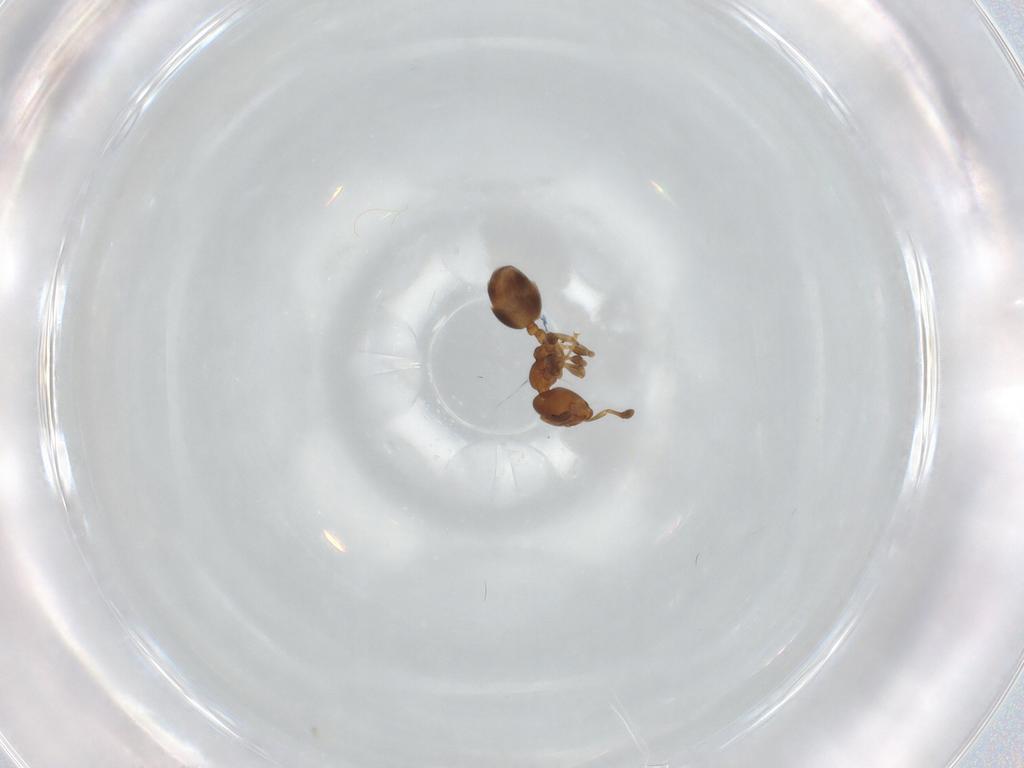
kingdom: Animalia
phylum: Arthropoda
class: Insecta
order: Hymenoptera
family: Formicidae
